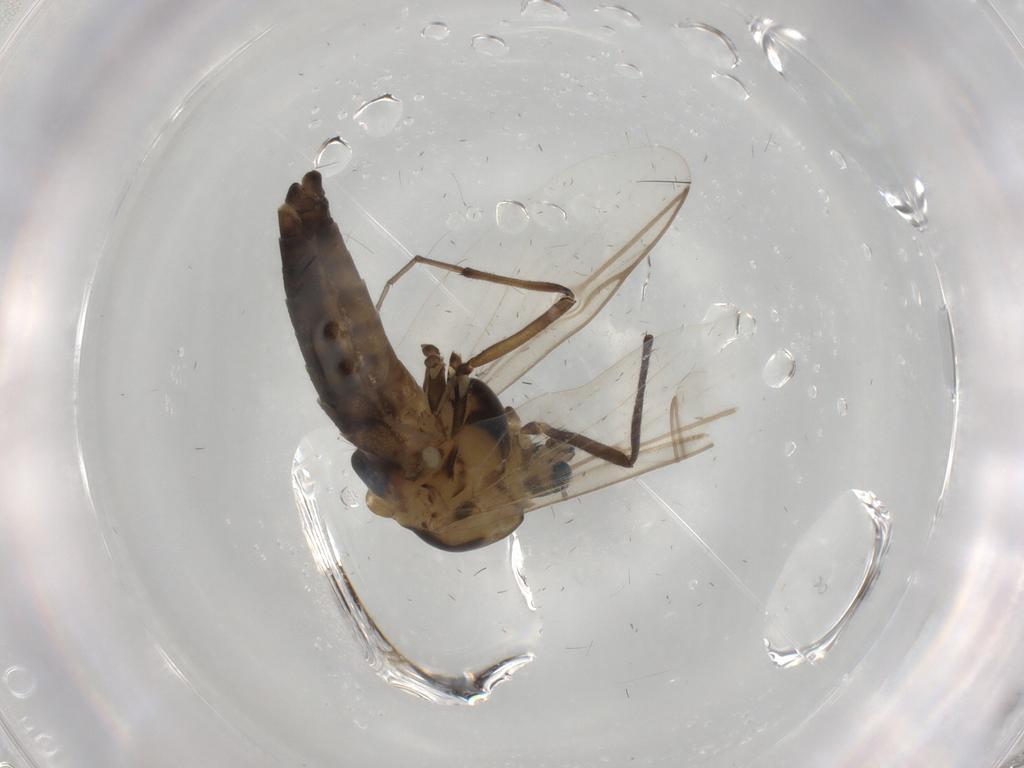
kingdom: Animalia
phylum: Arthropoda
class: Insecta
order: Diptera
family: Chironomidae
